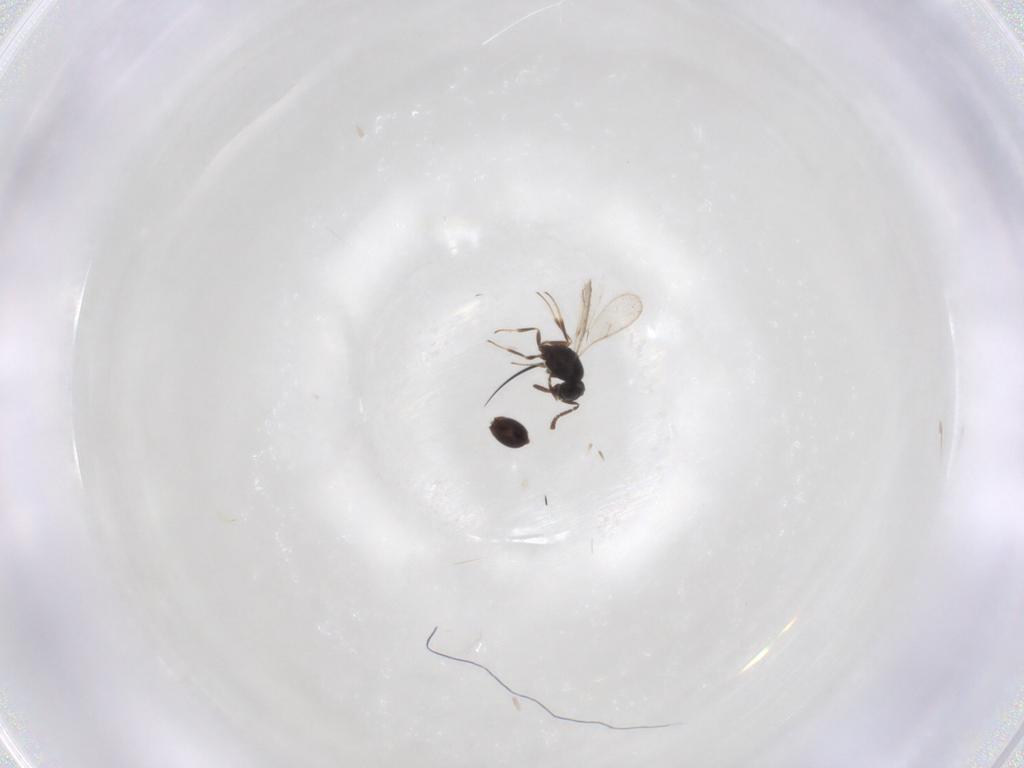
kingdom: Animalia
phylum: Arthropoda
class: Insecta
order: Hymenoptera
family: Scelionidae
